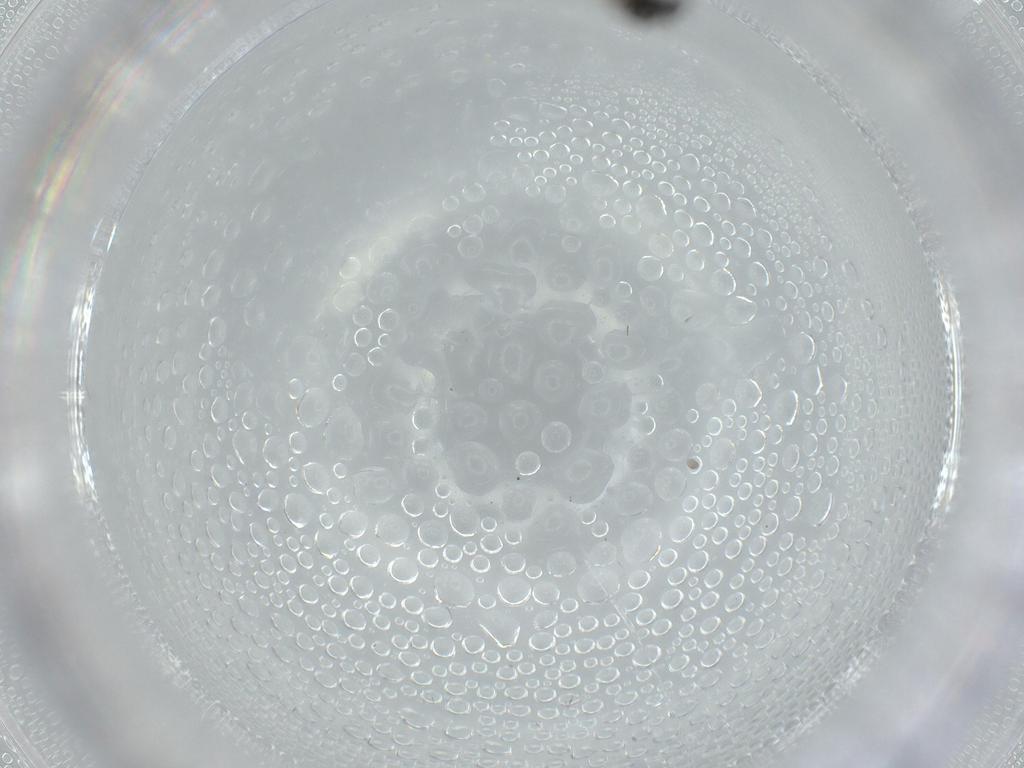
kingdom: Animalia
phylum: Arthropoda
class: Insecta
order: Hymenoptera
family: Scelionidae
